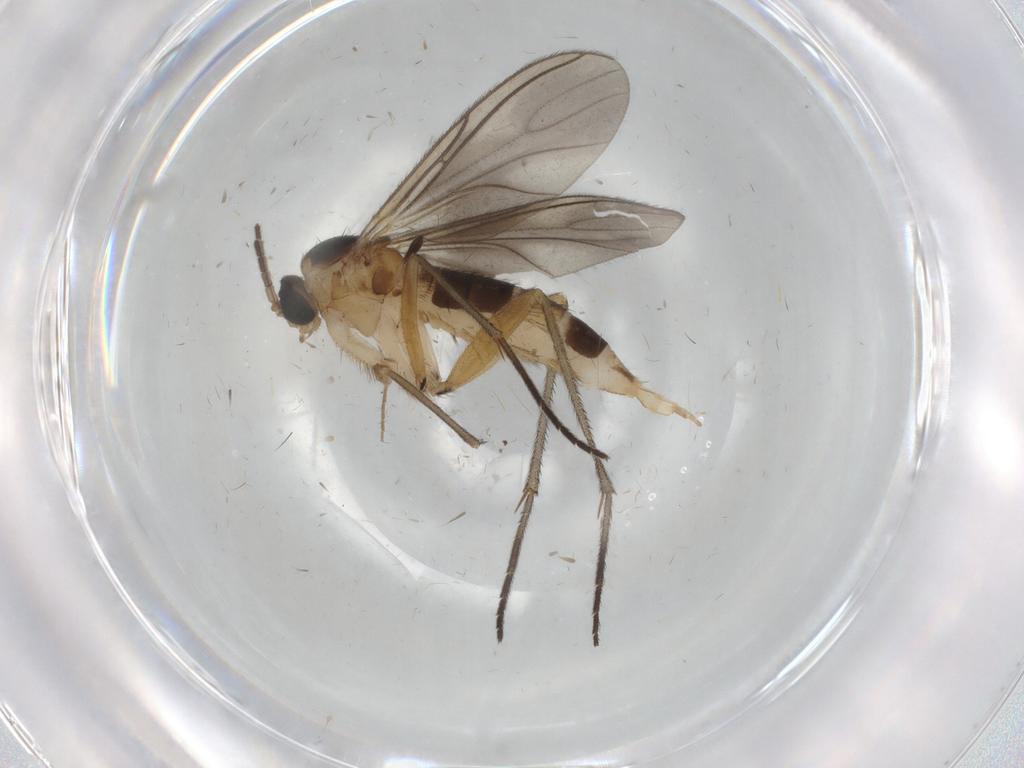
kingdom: Animalia
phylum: Arthropoda
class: Insecta
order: Diptera
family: Sciaridae
